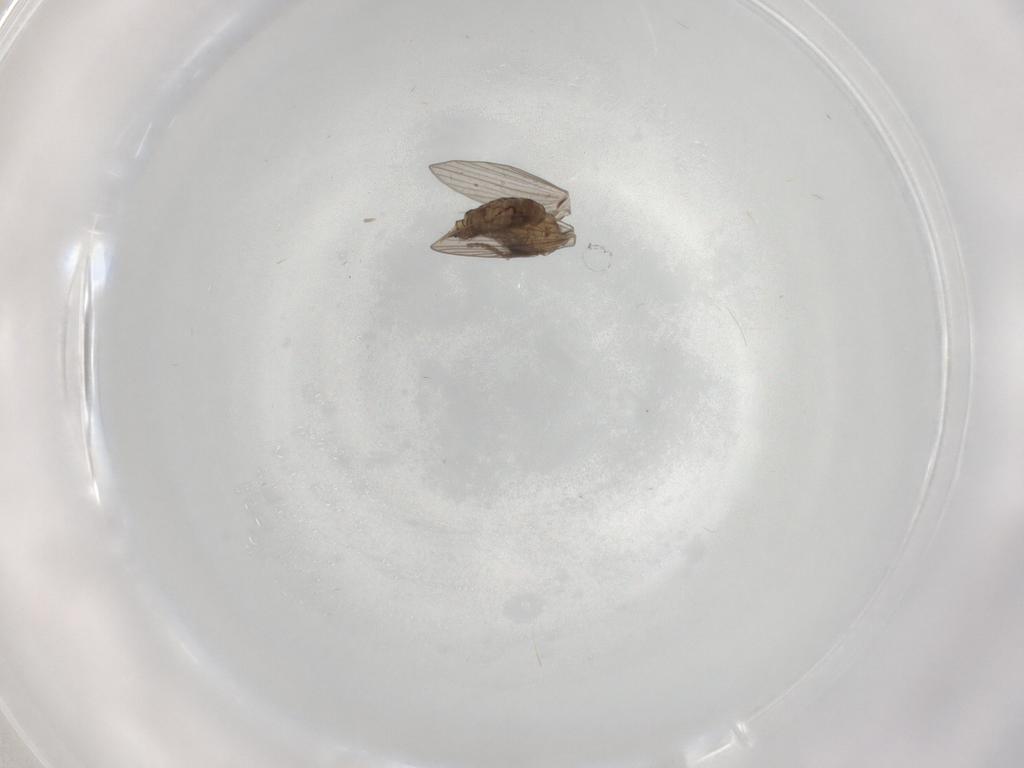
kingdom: Animalia
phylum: Arthropoda
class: Insecta
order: Diptera
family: Psychodidae
